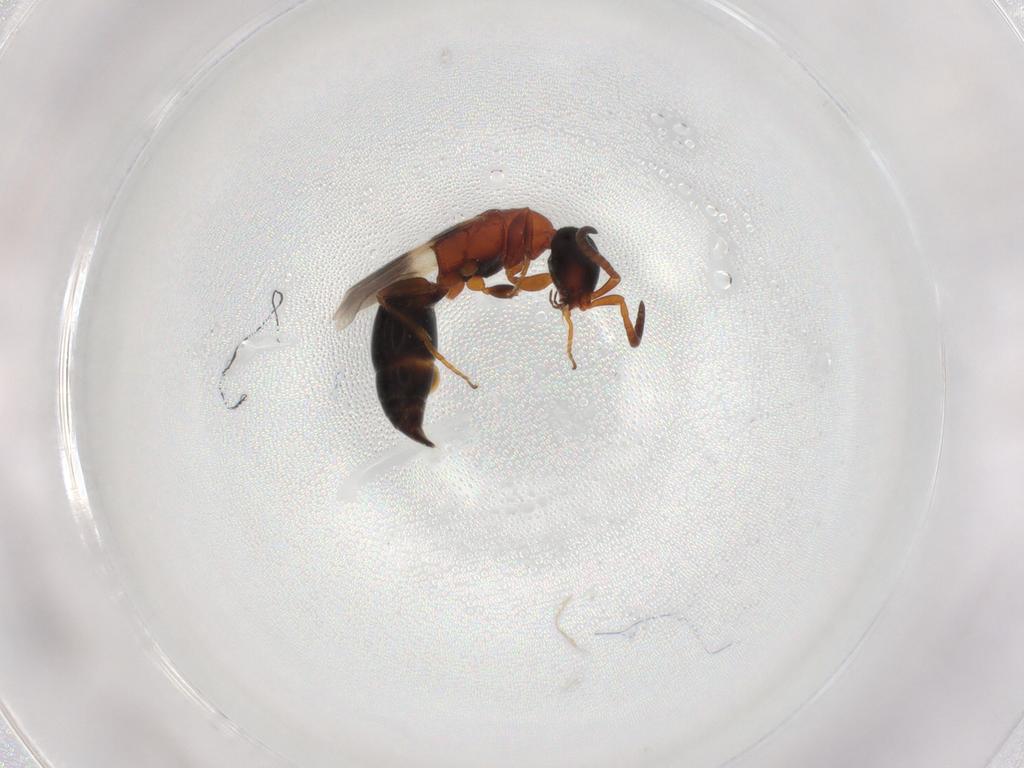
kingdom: Animalia
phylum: Arthropoda
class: Insecta
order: Hymenoptera
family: Bethylidae
